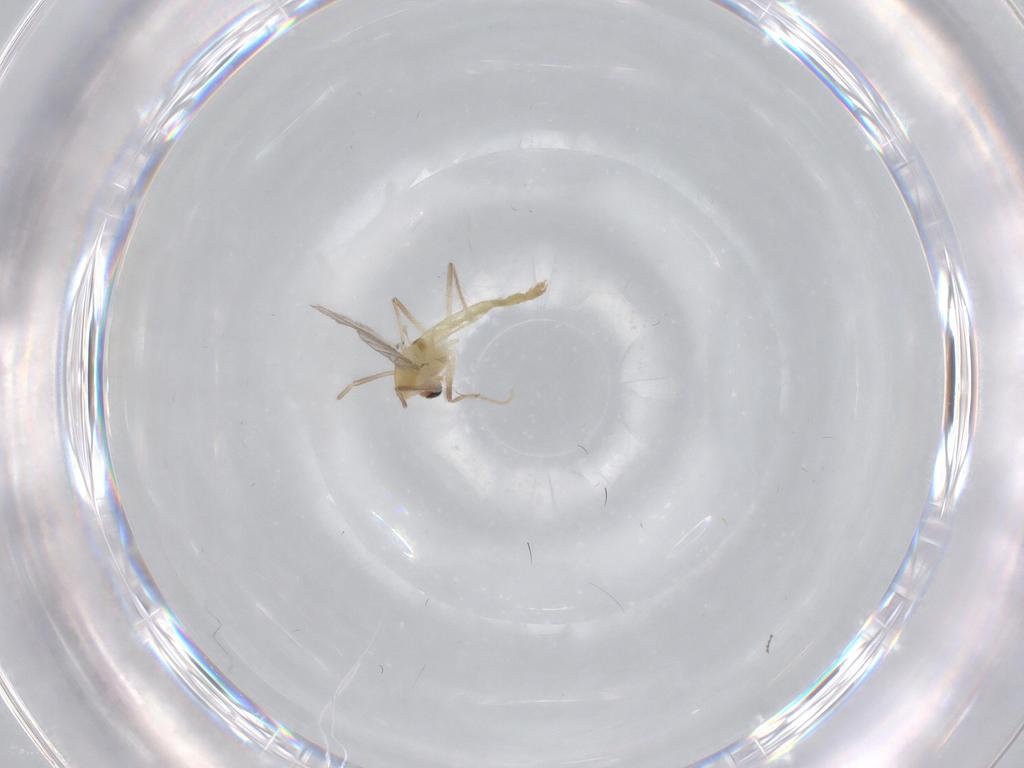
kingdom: Animalia
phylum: Arthropoda
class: Insecta
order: Diptera
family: Chironomidae
